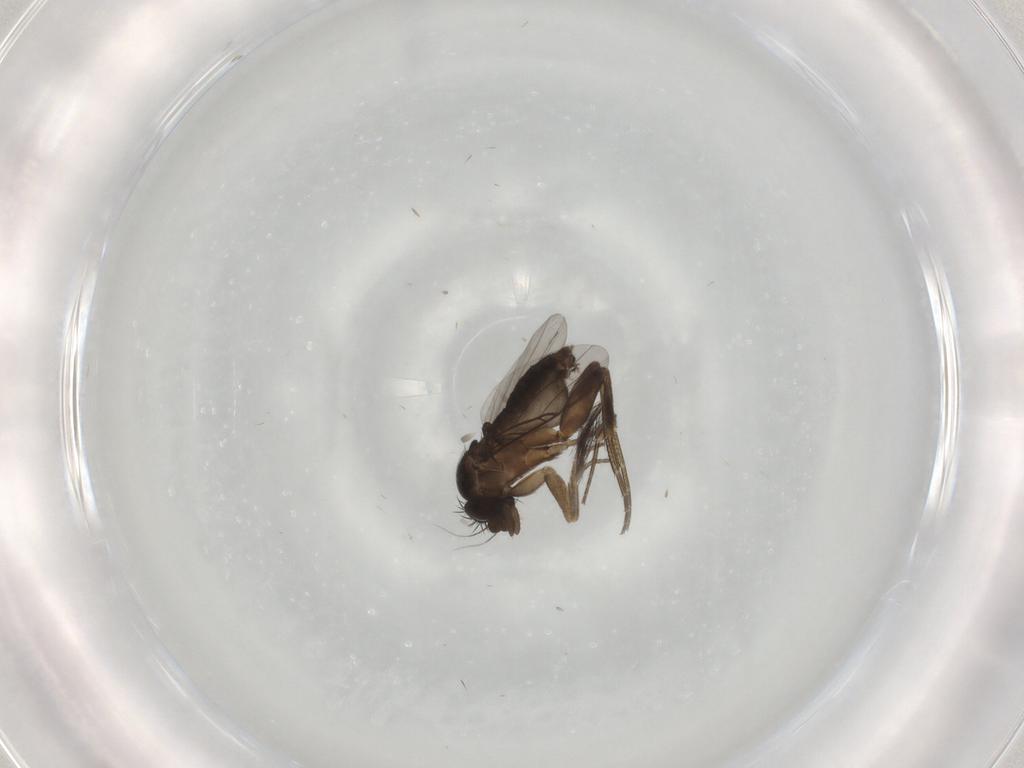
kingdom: Animalia
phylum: Arthropoda
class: Insecta
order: Diptera
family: Phoridae
